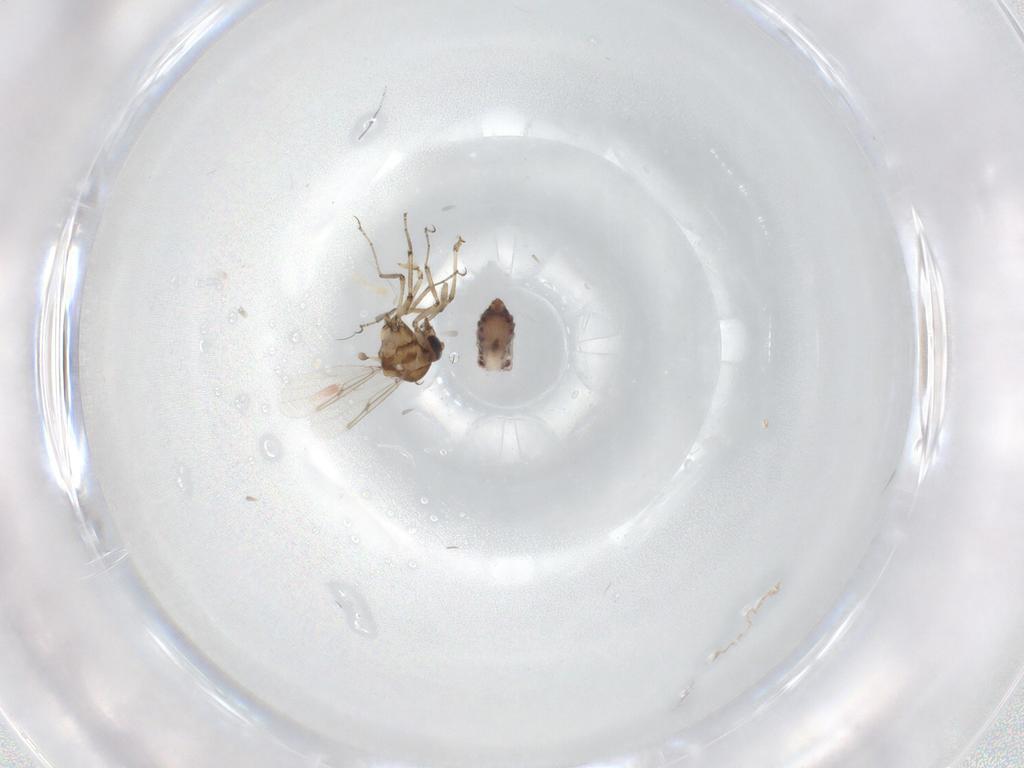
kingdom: Animalia
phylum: Arthropoda
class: Insecta
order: Diptera
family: Ceratopogonidae
